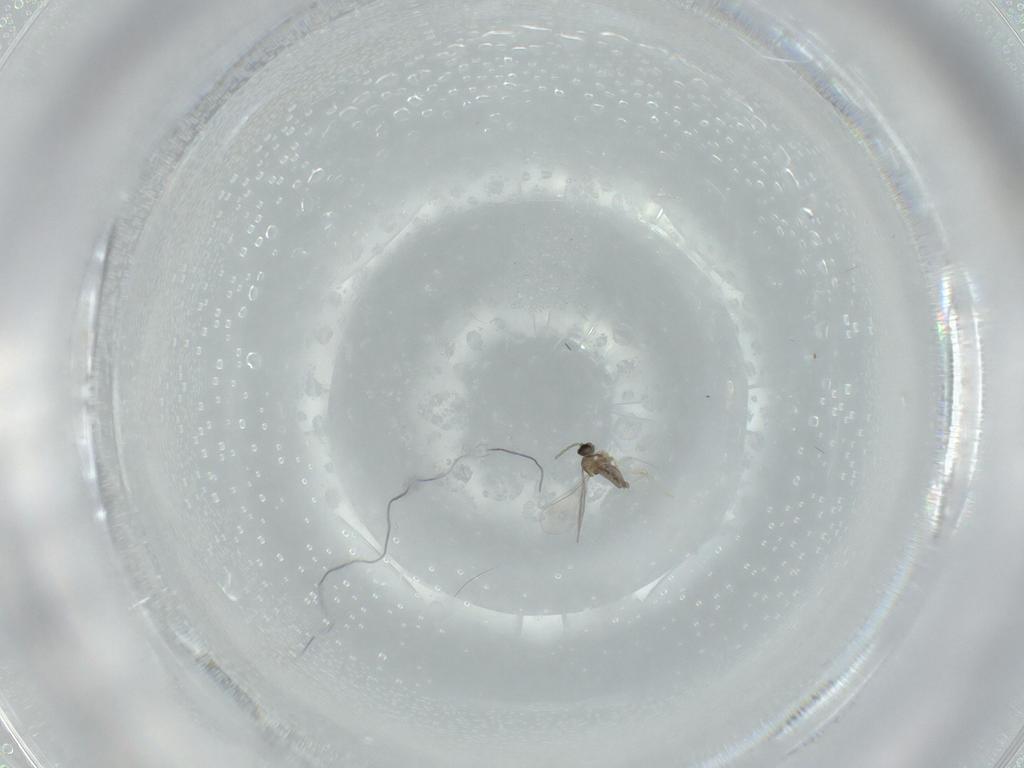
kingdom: Animalia
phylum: Arthropoda
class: Insecta
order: Diptera
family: Cecidomyiidae
